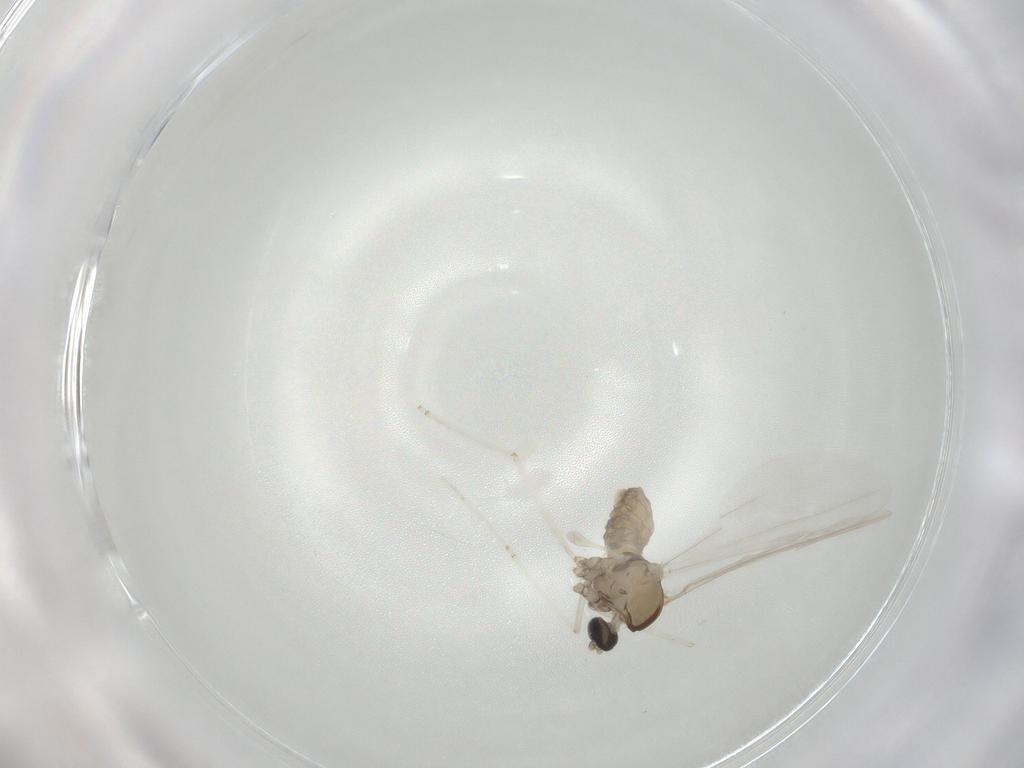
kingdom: Animalia
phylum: Arthropoda
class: Insecta
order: Diptera
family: Cecidomyiidae
